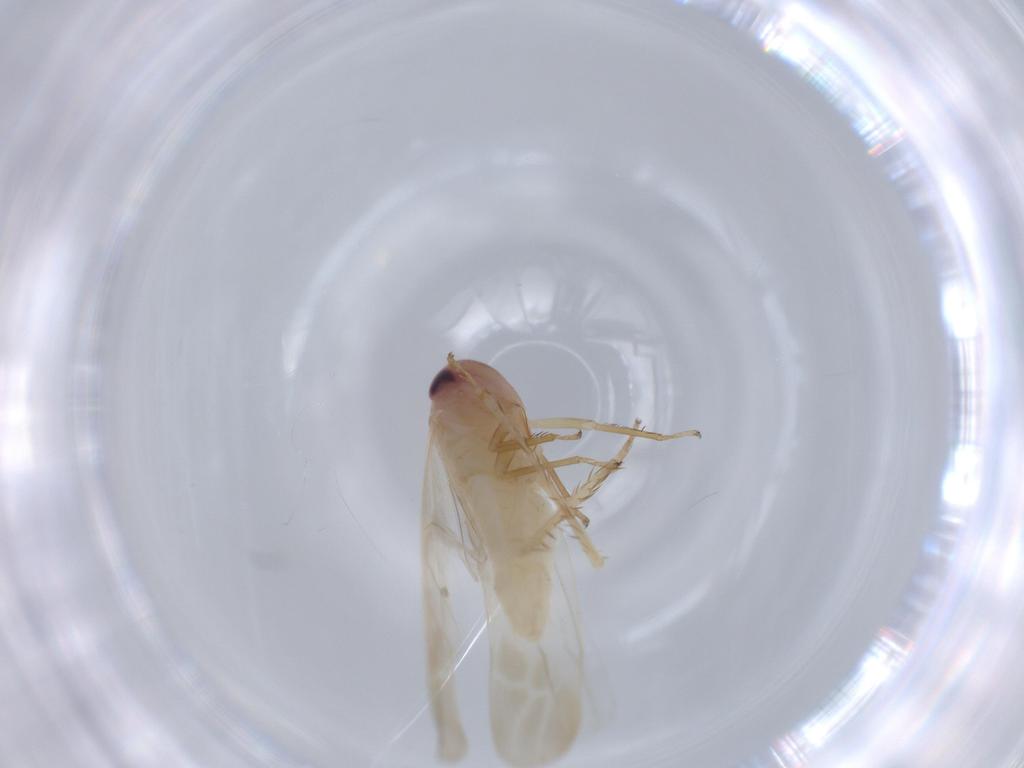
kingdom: Animalia
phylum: Arthropoda
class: Insecta
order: Hemiptera
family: Cicadellidae
